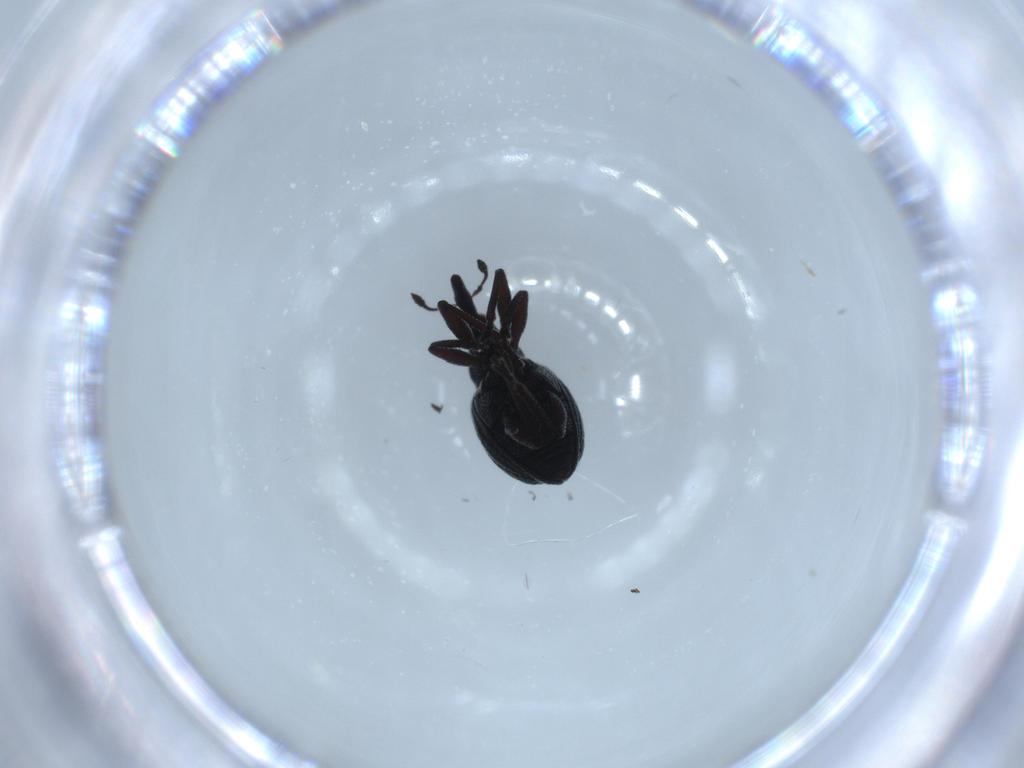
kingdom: Animalia
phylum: Arthropoda
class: Insecta
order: Coleoptera
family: Brentidae
